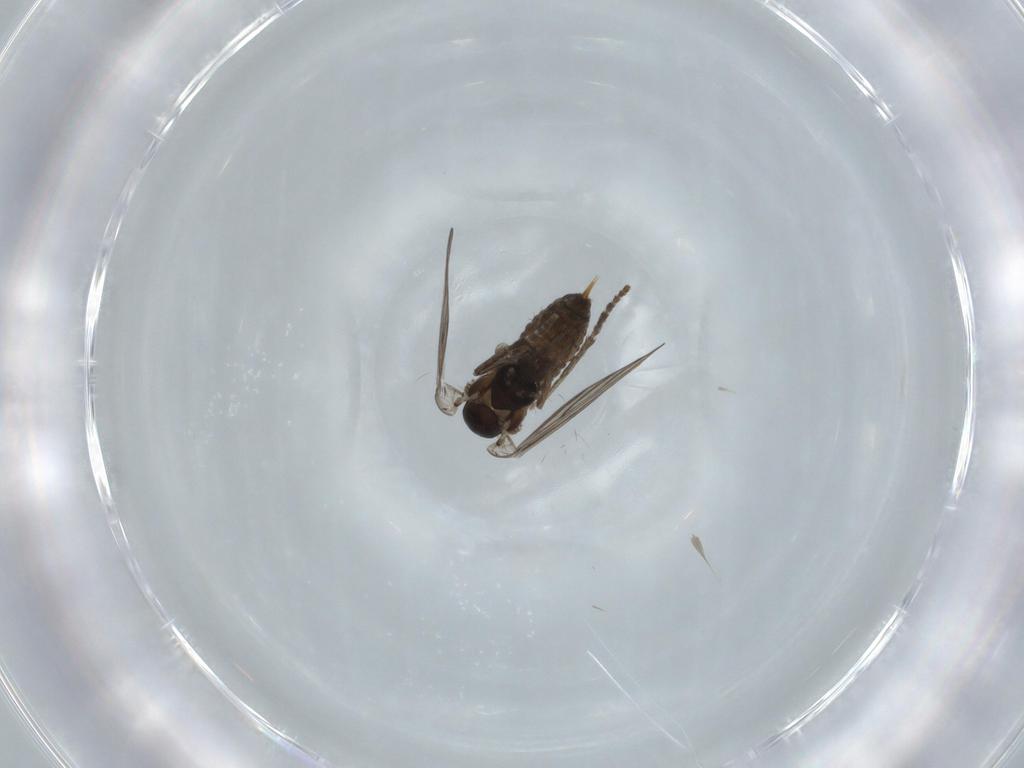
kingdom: Animalia
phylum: Arthropoda
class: Insecta
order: Diptera
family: Psychodidae
